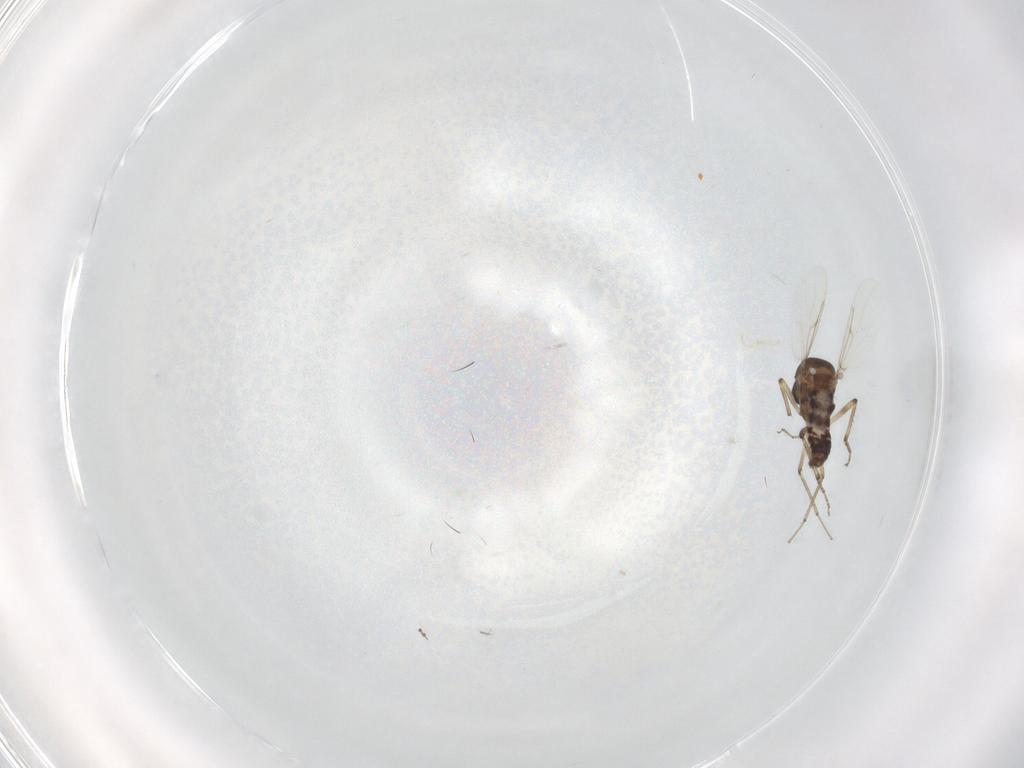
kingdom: Animalia
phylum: Arthropoda
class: Insecta
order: Diptera
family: Ceratopogonidae
